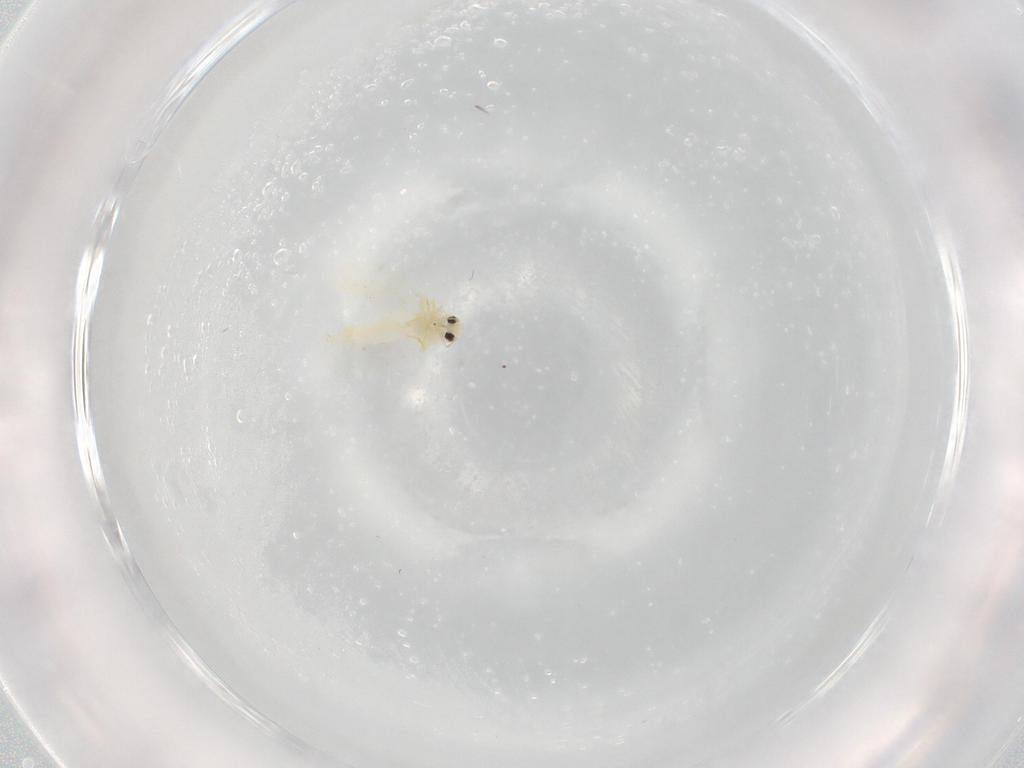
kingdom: Animalia
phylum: Arthropoda
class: Insecta
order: Hemiptera
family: Aleyrodidae
